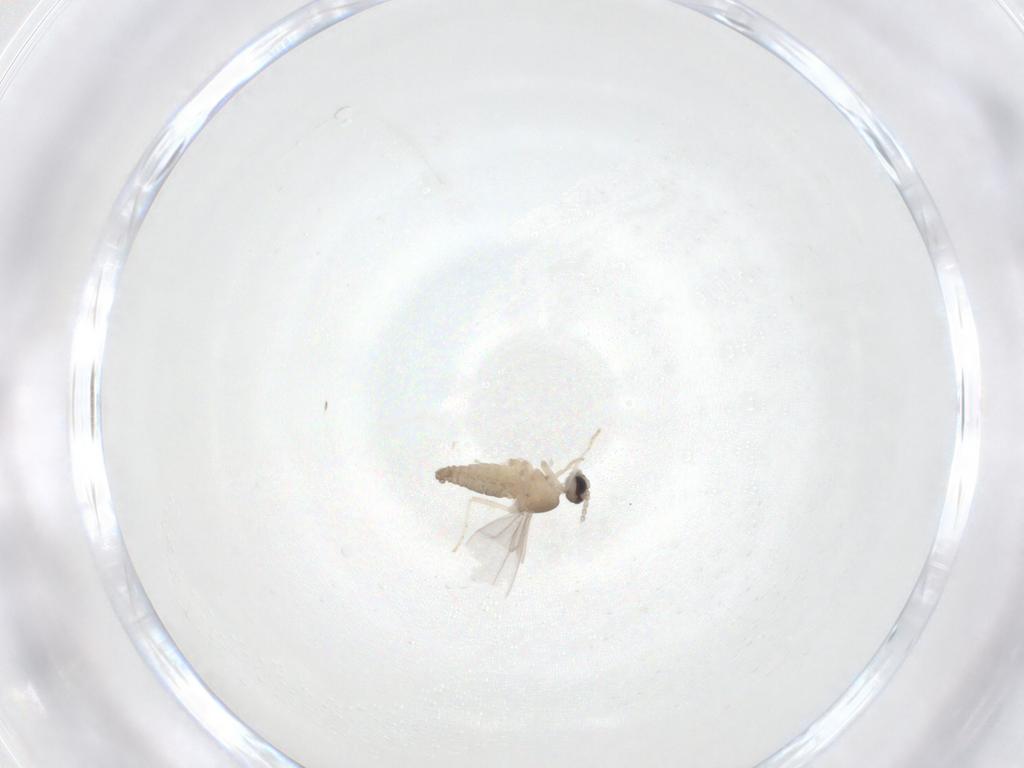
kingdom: Animalia
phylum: Arthropoda
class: Insecta
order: Diptera
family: Cecidomyiidae
